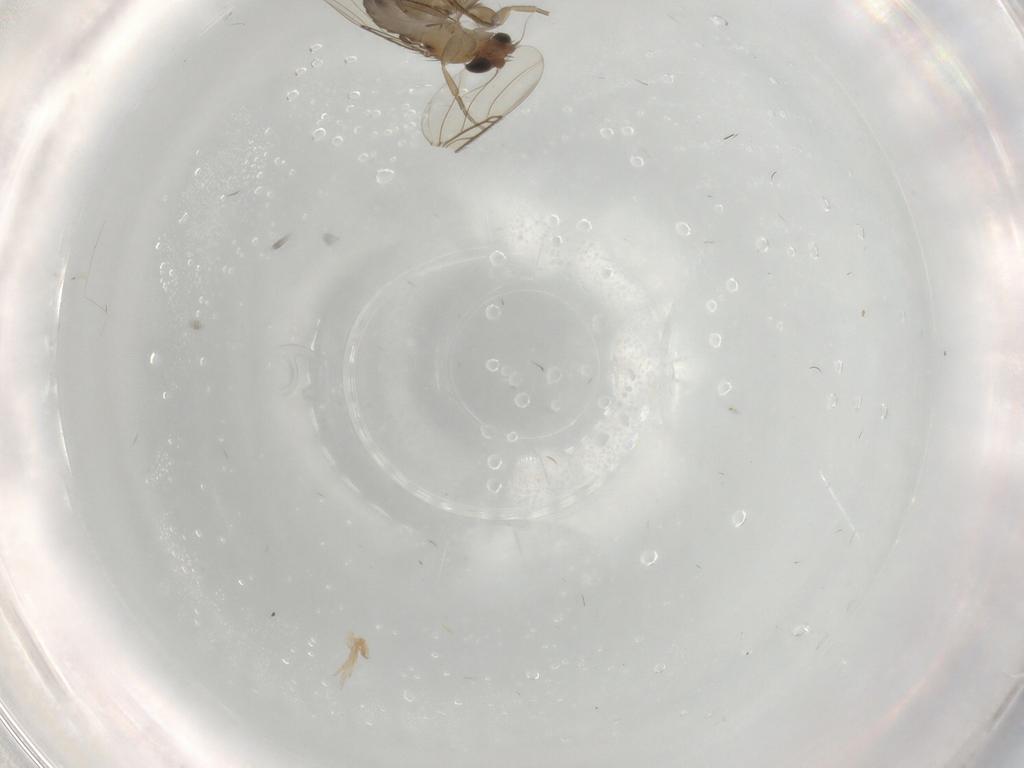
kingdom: Animalia
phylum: Arthropoda
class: Insecta
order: Diptera
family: Phoridae
